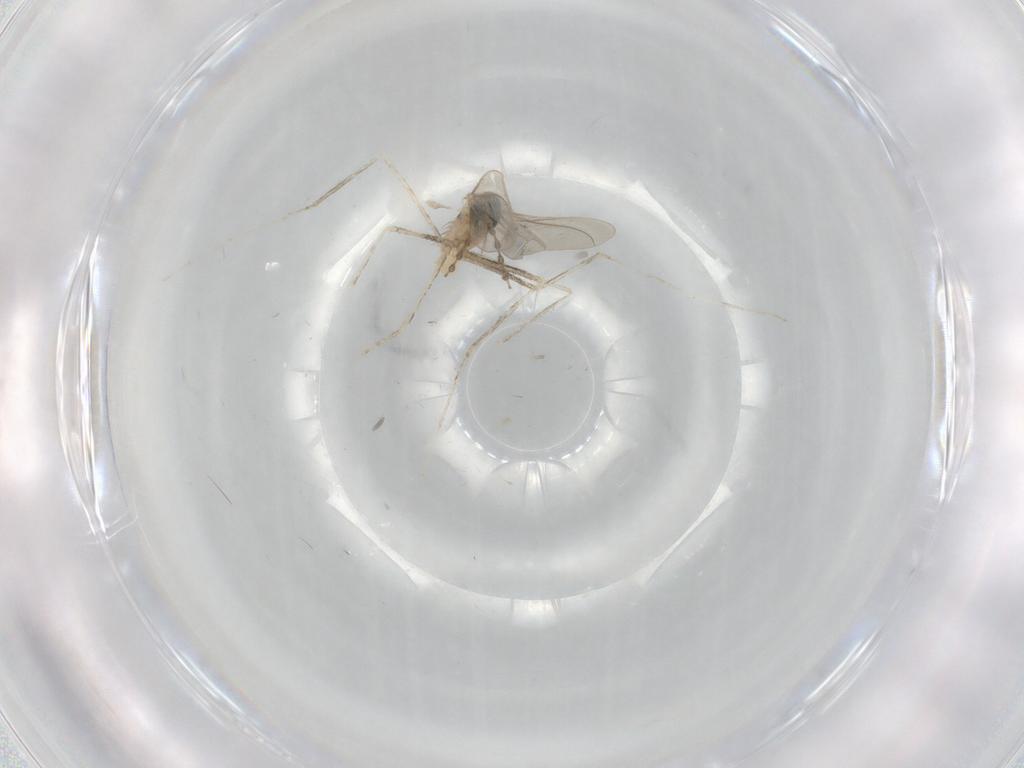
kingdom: Animalia
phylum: Arthropoda
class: Insecta
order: Diptera
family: Cecidomyiidae
